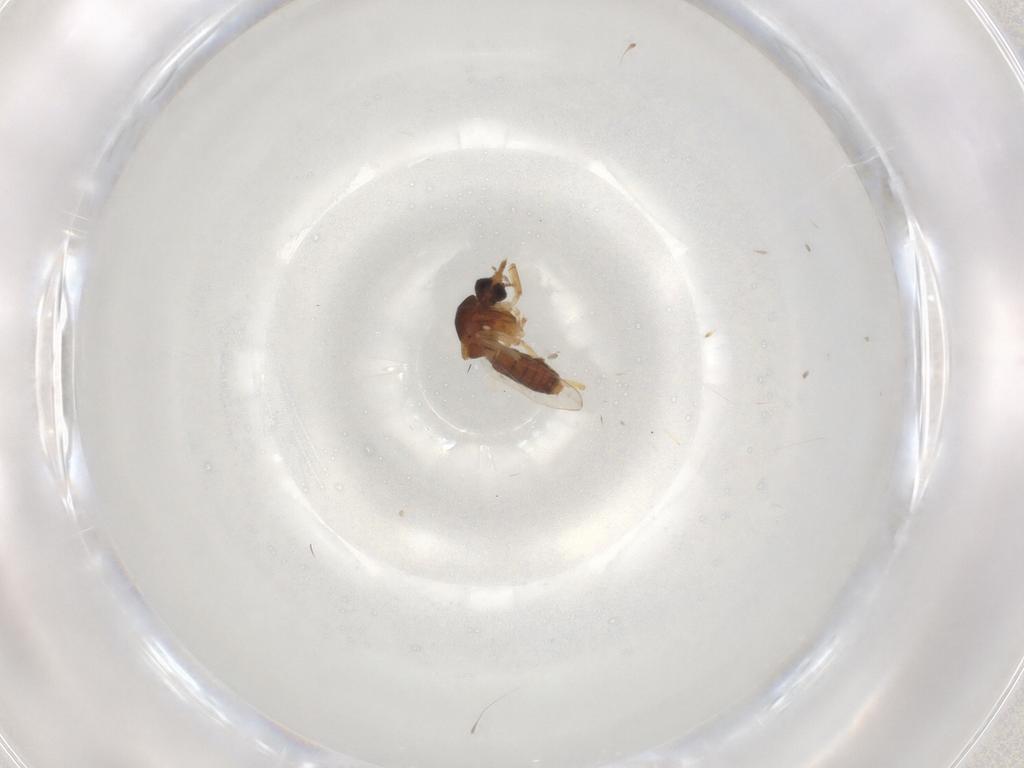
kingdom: Animalia
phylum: Arthropoda
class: Insecta
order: Diptera
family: Ceratopogonidae
